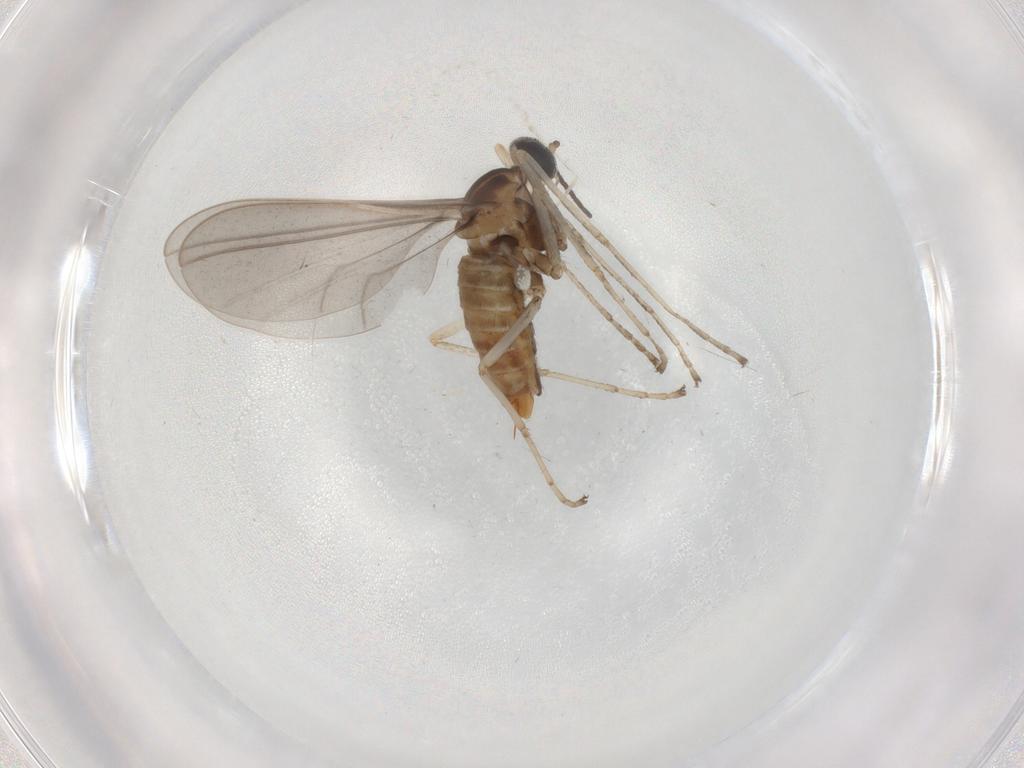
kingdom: Animalia
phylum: Arthropoda
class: Insecta
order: Diptera
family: Cecidomyiidae
